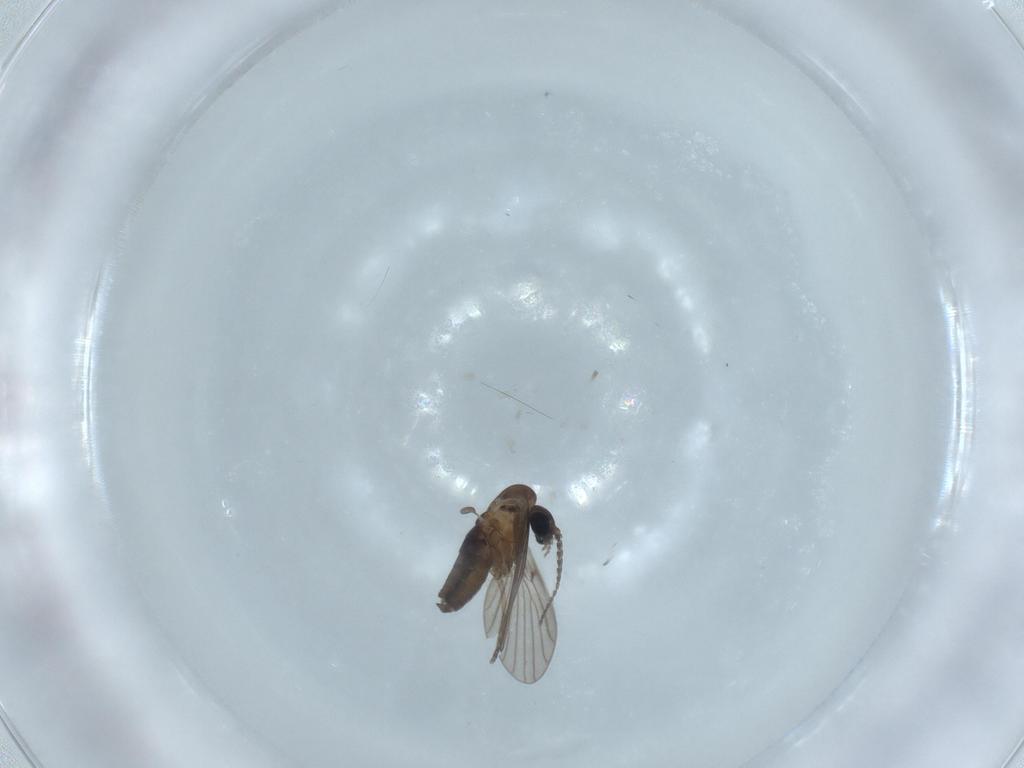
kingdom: Animalia
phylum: Arthropoda
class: Insecta
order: Diptera
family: Psychodidae
